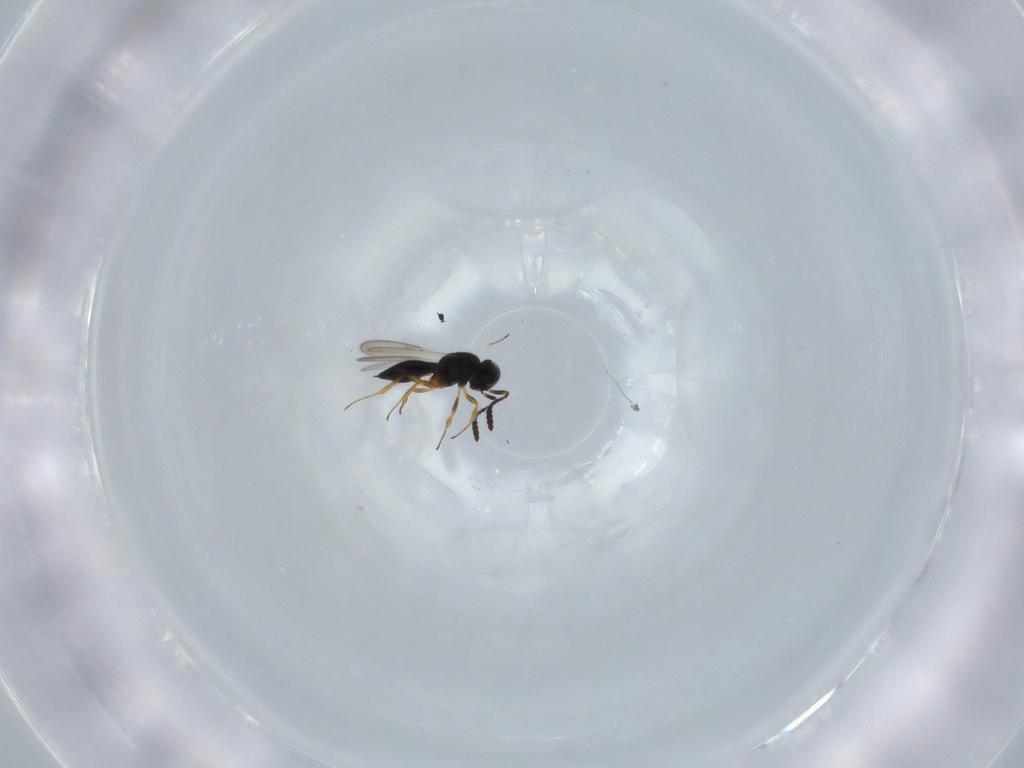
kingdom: Animalia
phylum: Arthropoda
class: Insecta
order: Hymenoptera
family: Scelionidae
